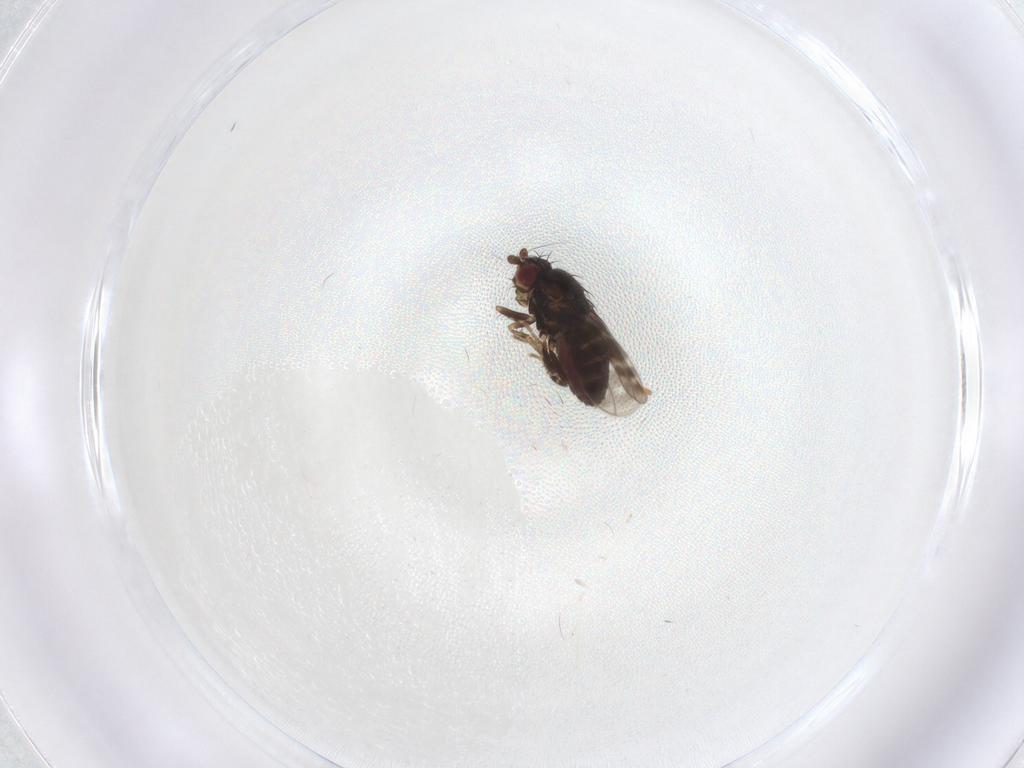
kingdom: Animalia
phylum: Arthropoda
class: Insecta
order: Diptera
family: Sphaeroceridae
